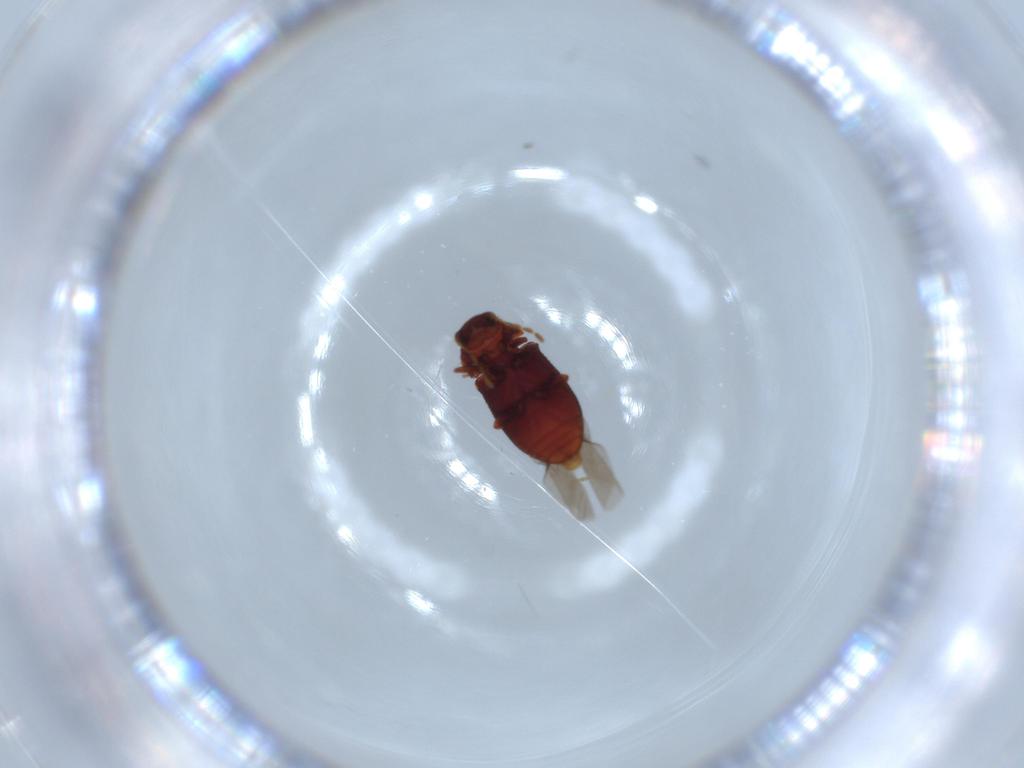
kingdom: Animalia
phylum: Arthropoda
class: Insecta
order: Coleoptera
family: Ptinidae
